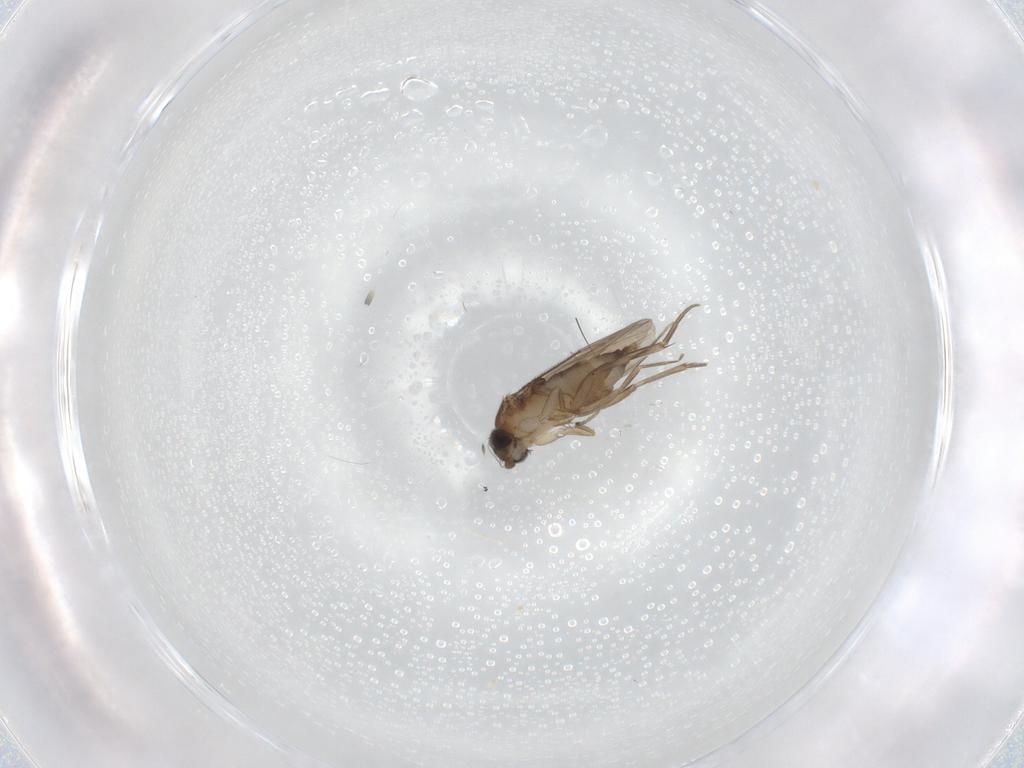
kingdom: Animalia
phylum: Arthropoda
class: Insecta
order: Diptera
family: Phoridae
